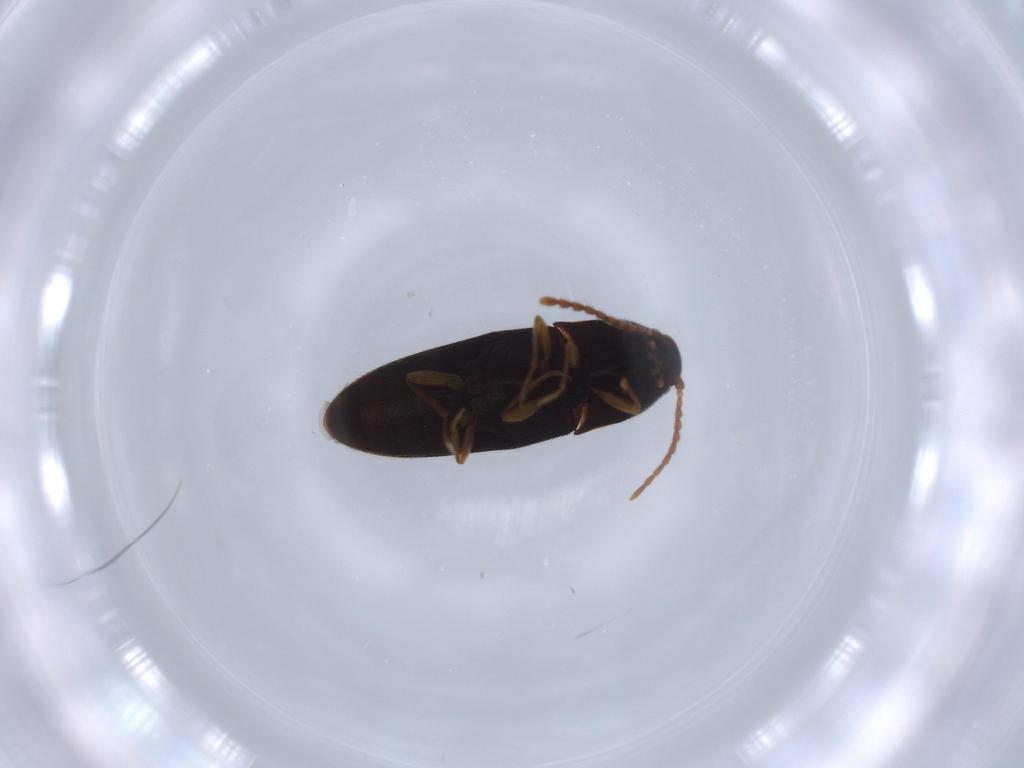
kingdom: Animalia
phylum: Arthropoda
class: Insecta
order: Coleoptera
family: Elateridae
